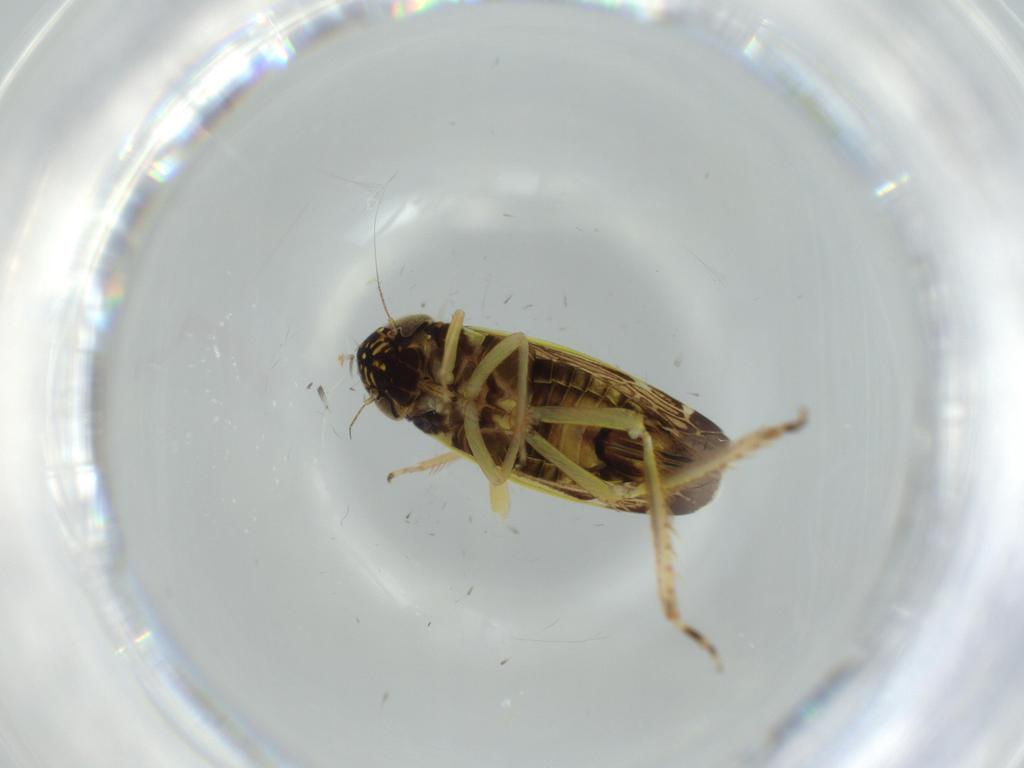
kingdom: Animalia
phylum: Arthropoda
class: Insecta
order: Hemiptera
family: Cicadellidae
